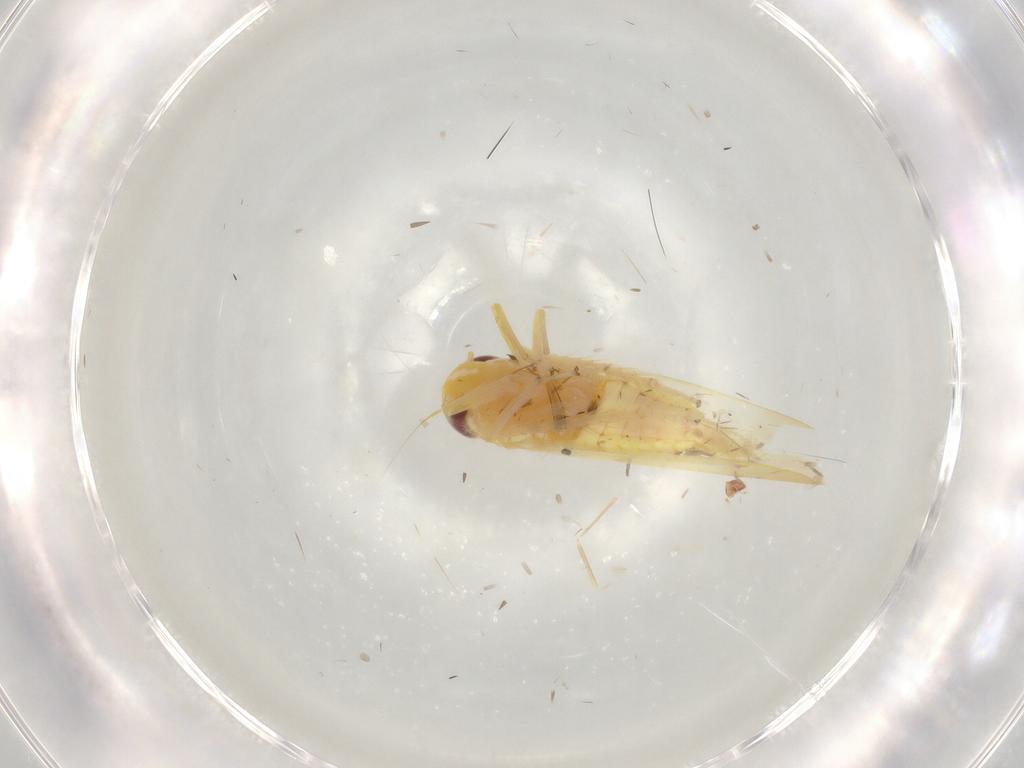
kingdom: Animalia
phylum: Arthropoda
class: Insecta
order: Hemiptera
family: Cicadellidae
